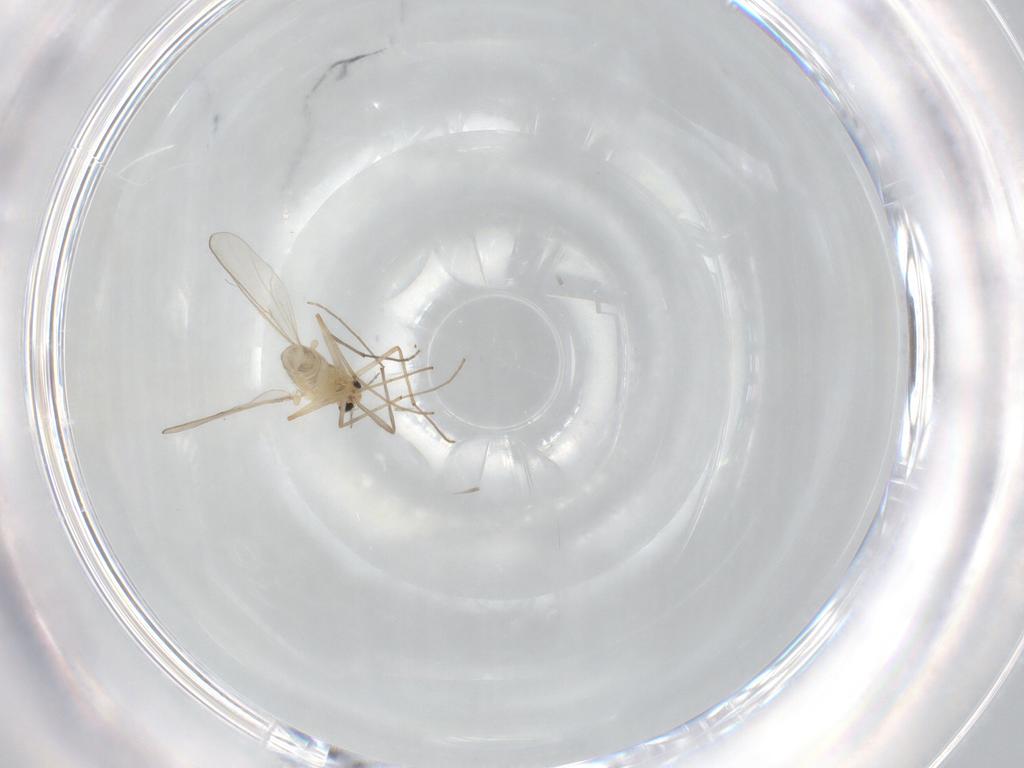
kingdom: Animalia
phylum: Arthropoda
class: Insecta
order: Diptera
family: Chironomidae
